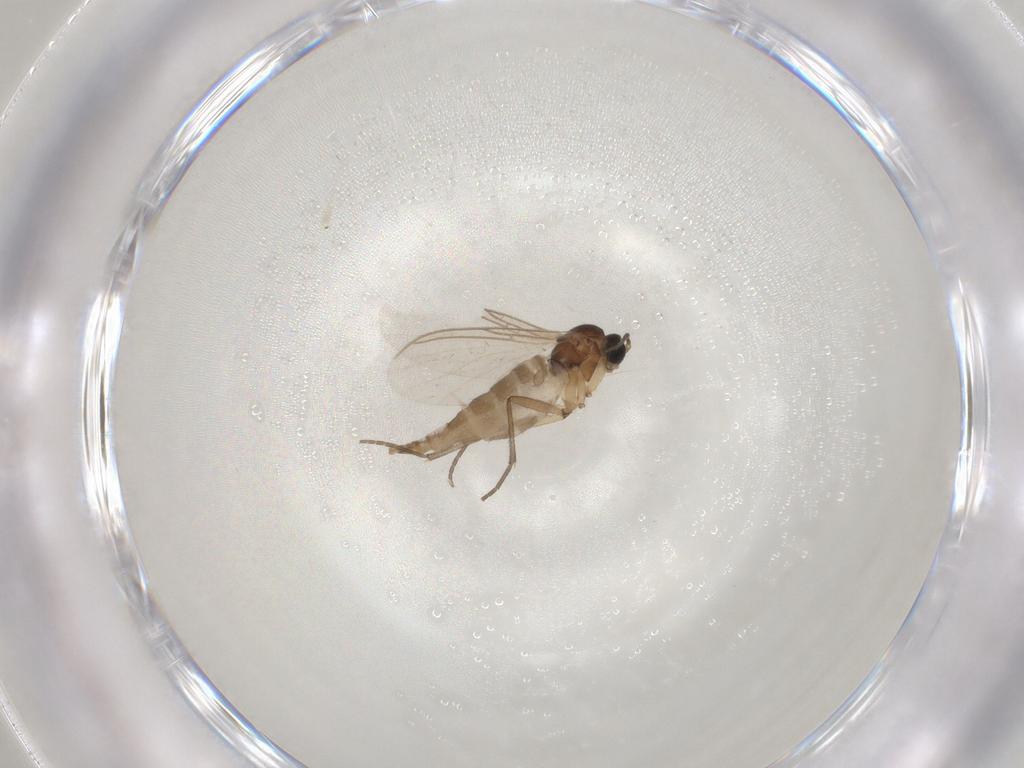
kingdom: Animalia
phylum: Arthropoda
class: Insecta
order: Diptera
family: Sciaridae
